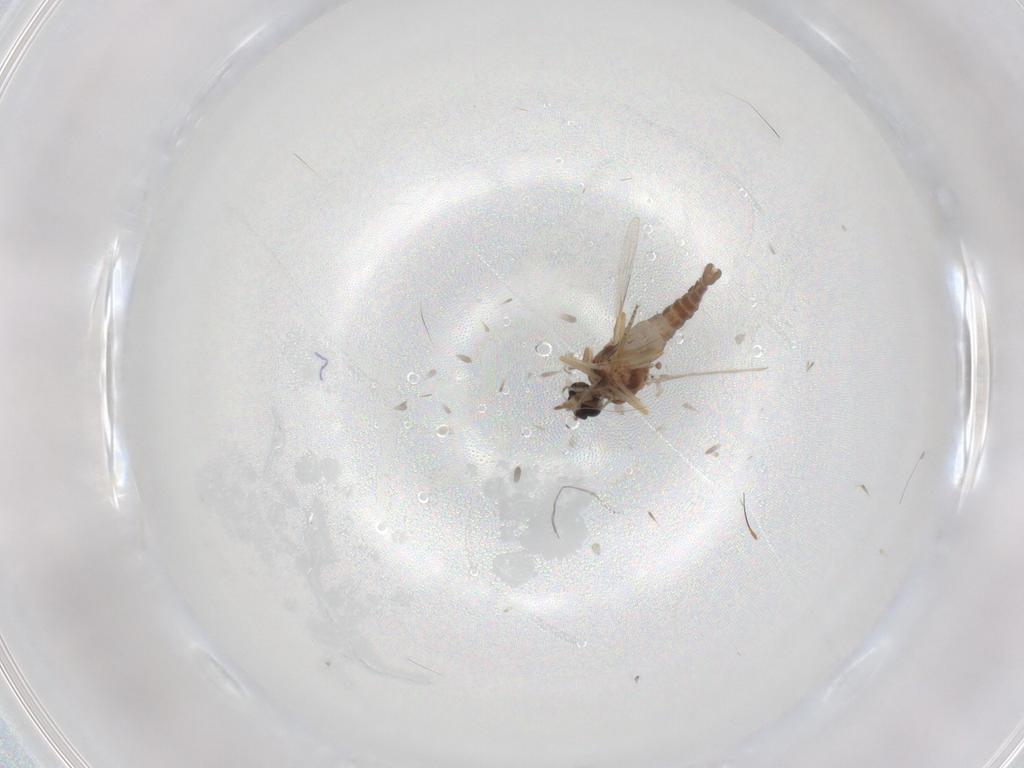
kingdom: Animalia
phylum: Arthropoda
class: Insecta
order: Diptera
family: Ceratopogonidae
